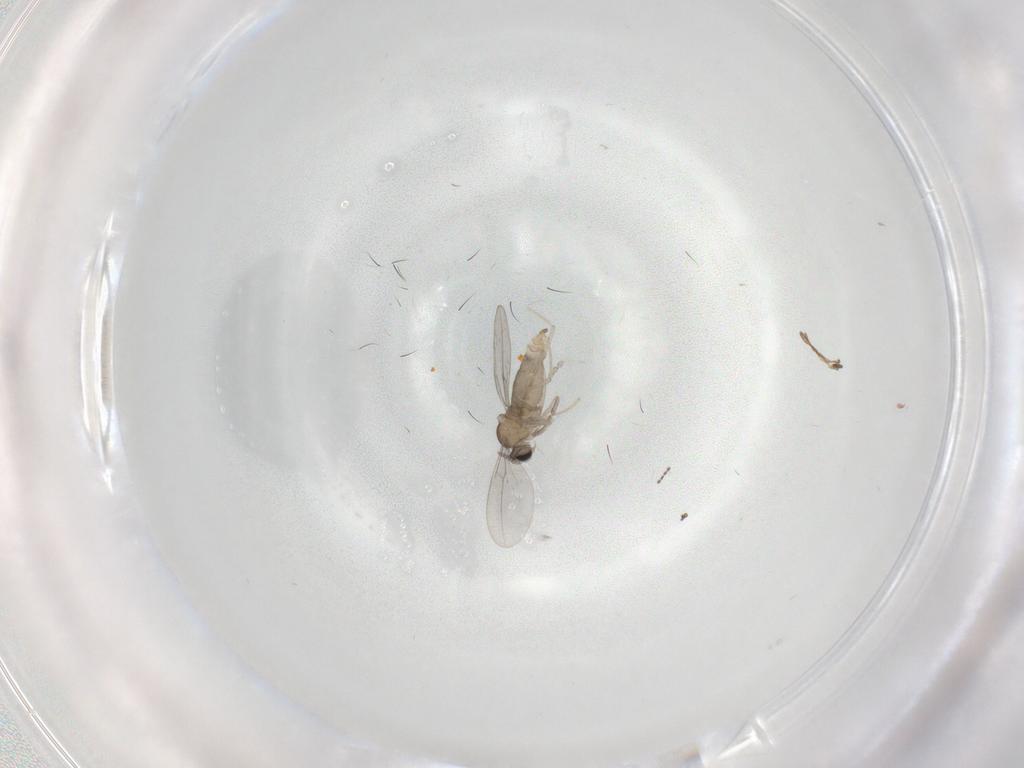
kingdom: Animalia
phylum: Arthropoda
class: Insecta
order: Diptera
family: Cecidomyiidae
